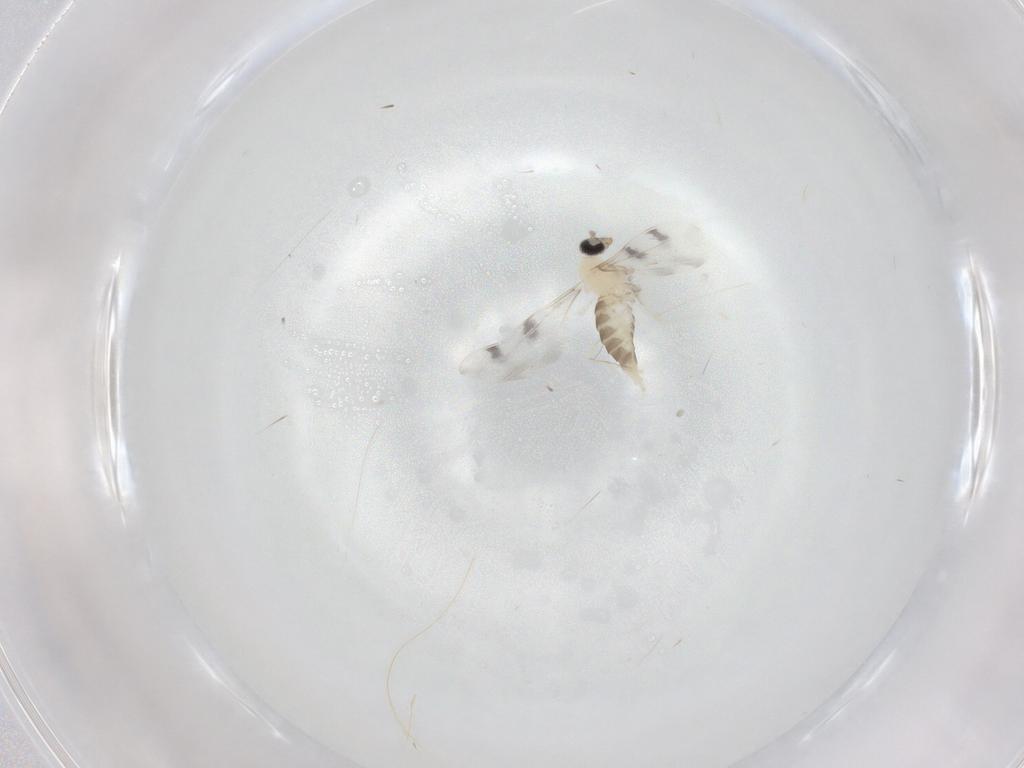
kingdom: Animalia
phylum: Arthropoda
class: Insecta
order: Diptera
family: Cecidomyiidae
